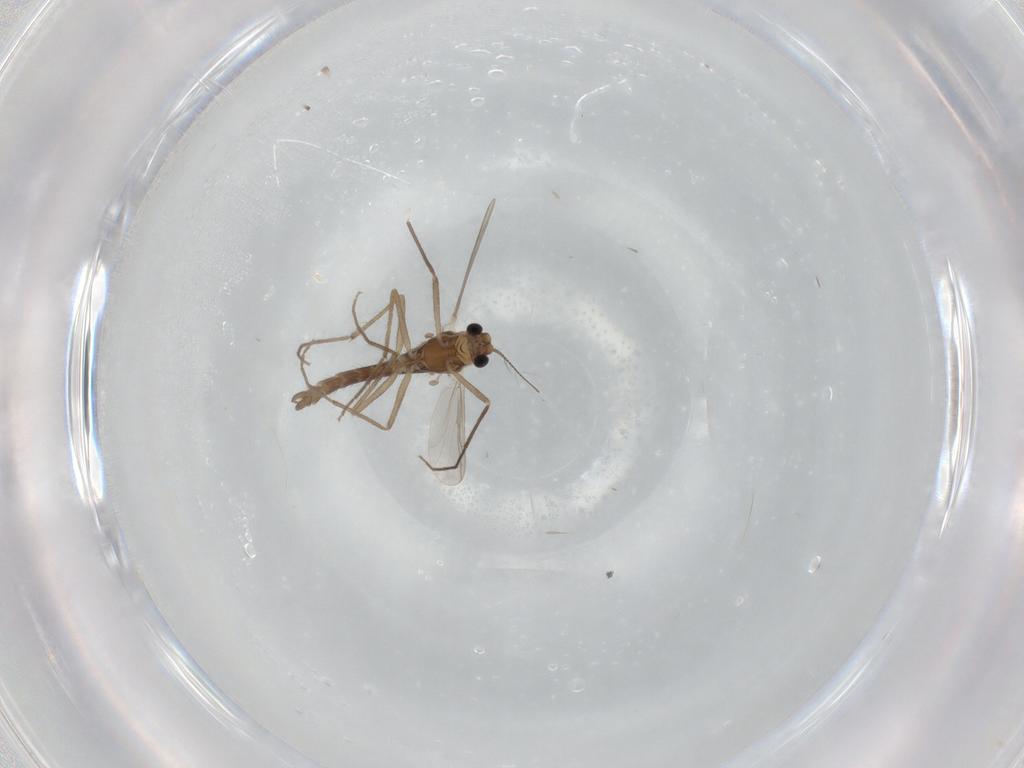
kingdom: Animalia
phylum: Arthropoda
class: Insecta
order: Diptera
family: Chironomidae
